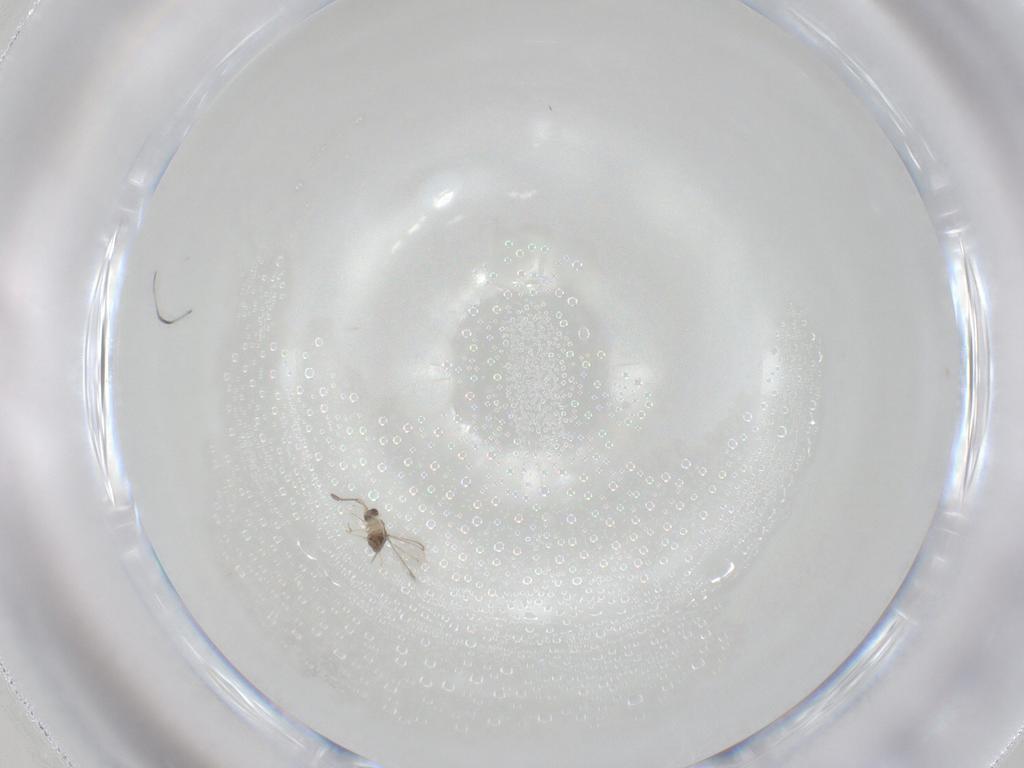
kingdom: Animalia
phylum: Arthropoda
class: Insecta
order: Hymenoptera
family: Mymaridae
